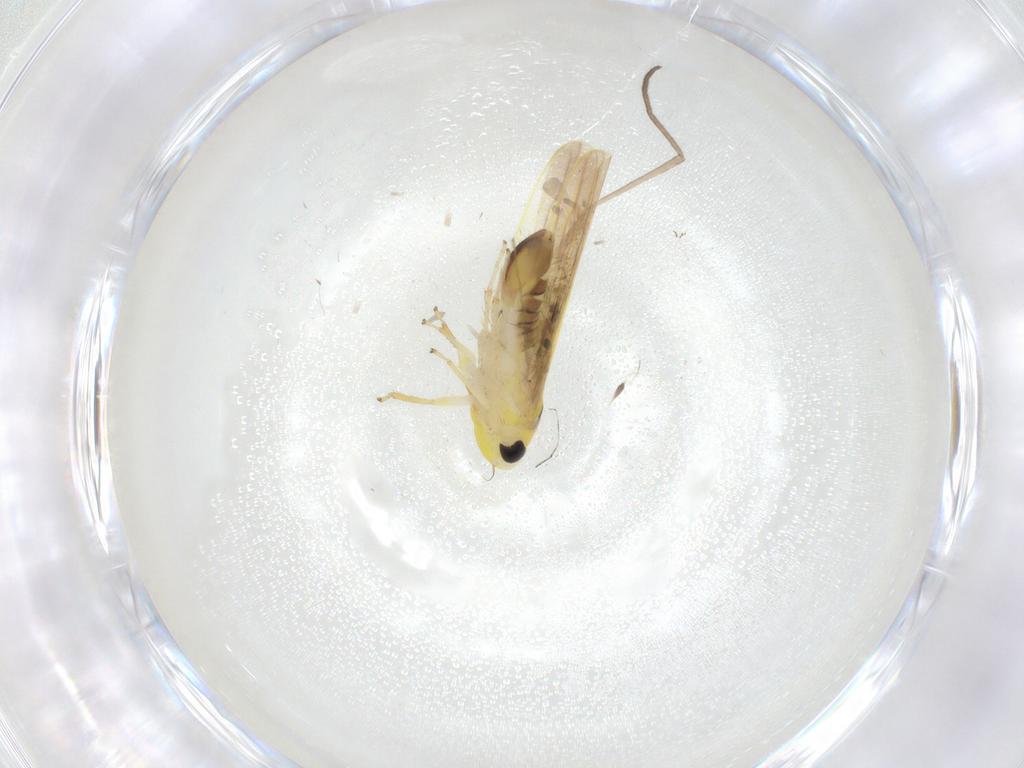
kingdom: Animalia
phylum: Arthropoda
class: Insecta
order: Hemiptera
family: Cicadellidae
